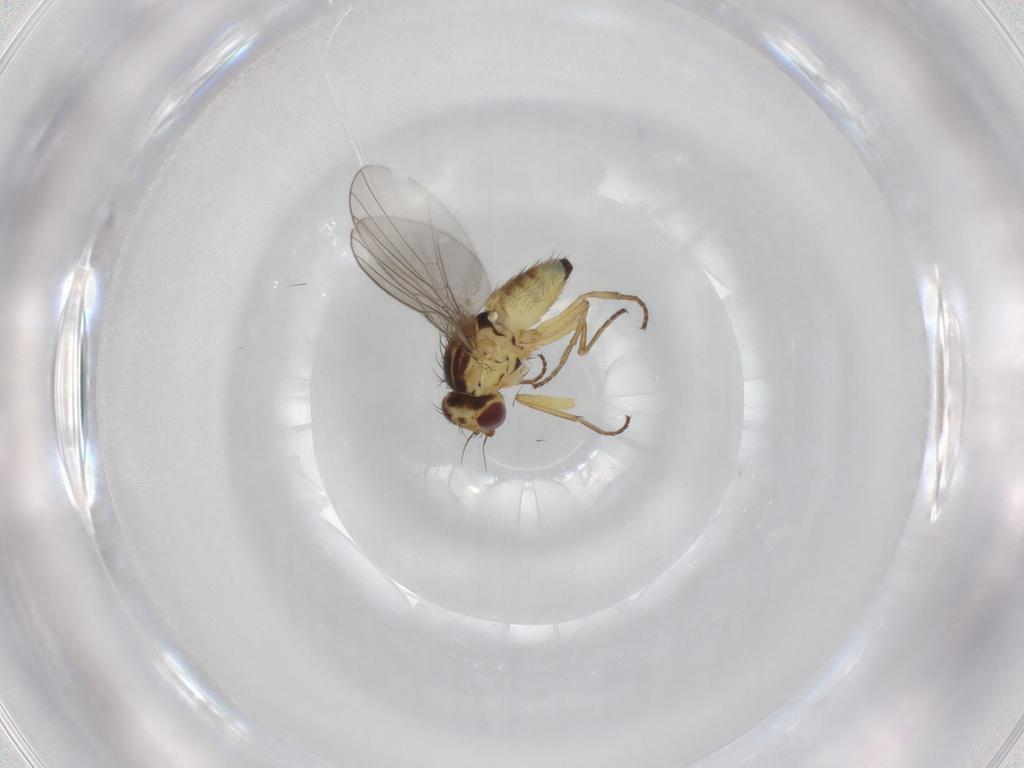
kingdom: Animalia
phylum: Arthropoda
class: Insecta
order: Diptera
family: Agromyzidae
